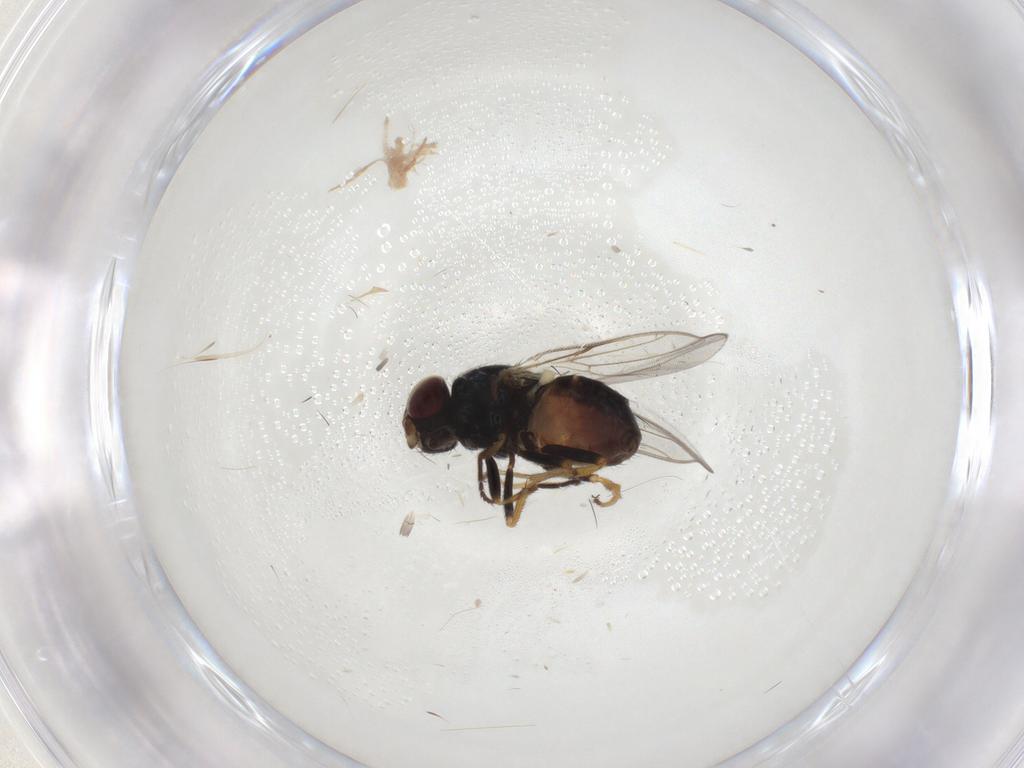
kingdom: Animalia
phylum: Arthropoda
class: Insecta
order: Diptera
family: Chloropidae
